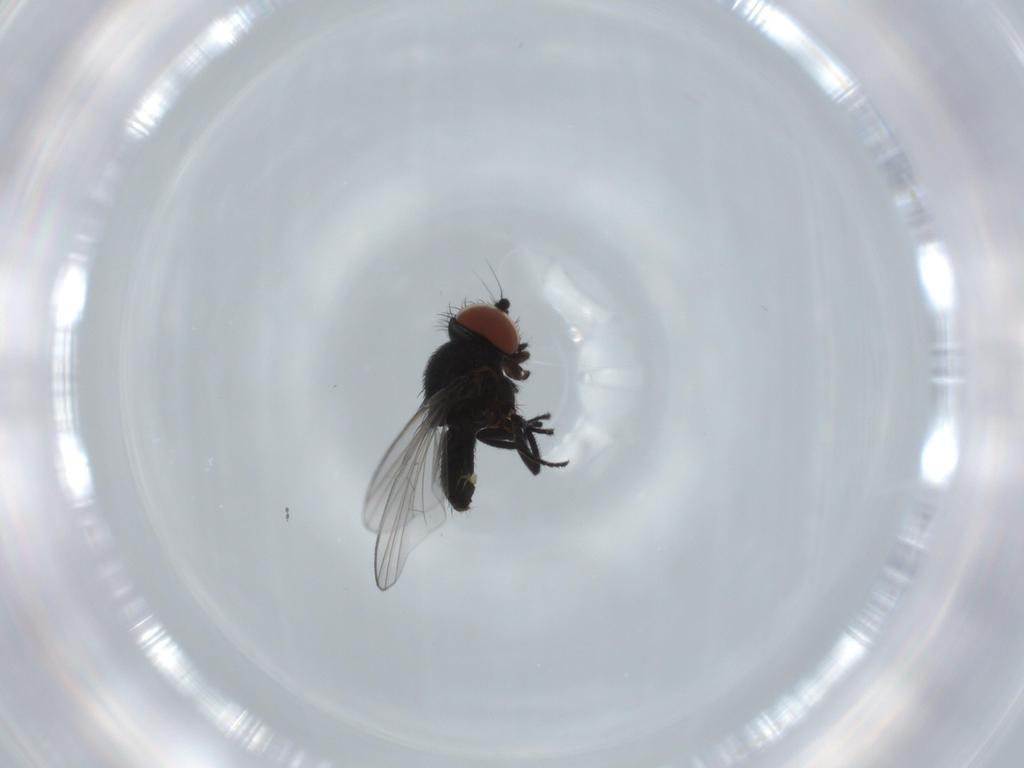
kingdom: Animalia
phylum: Arthropoda
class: Insecta
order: Diptera
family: Milichiidae
